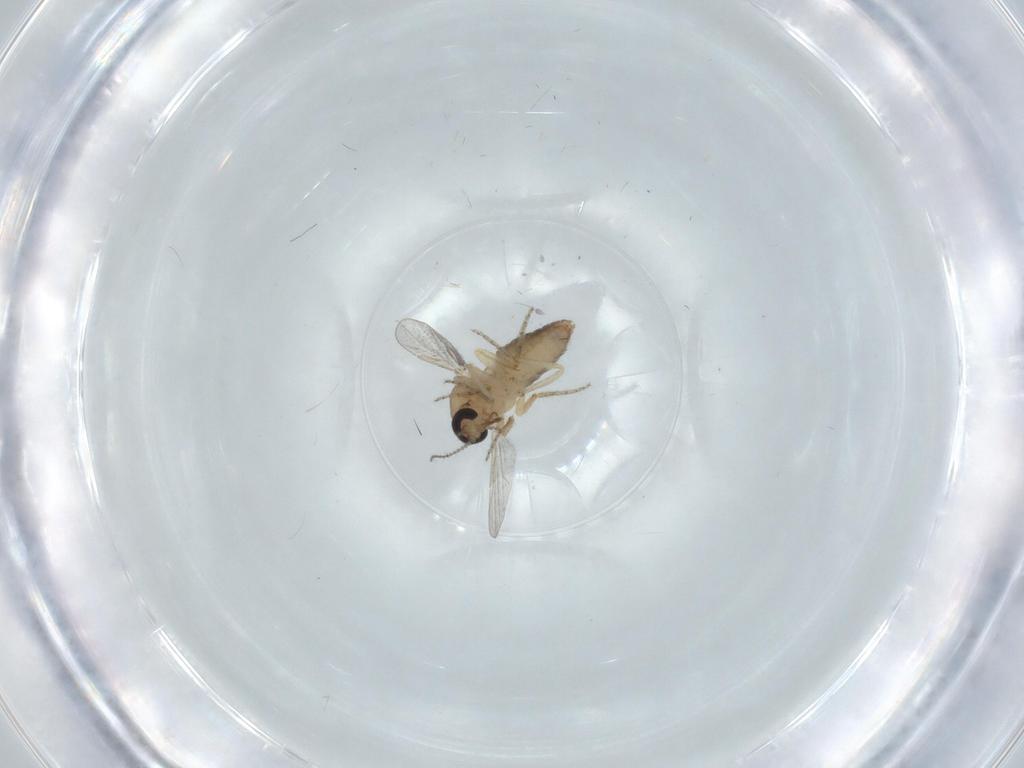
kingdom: Animalia
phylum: Arthropoda
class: Insecta
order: Diptera
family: Ceratopogonidae
